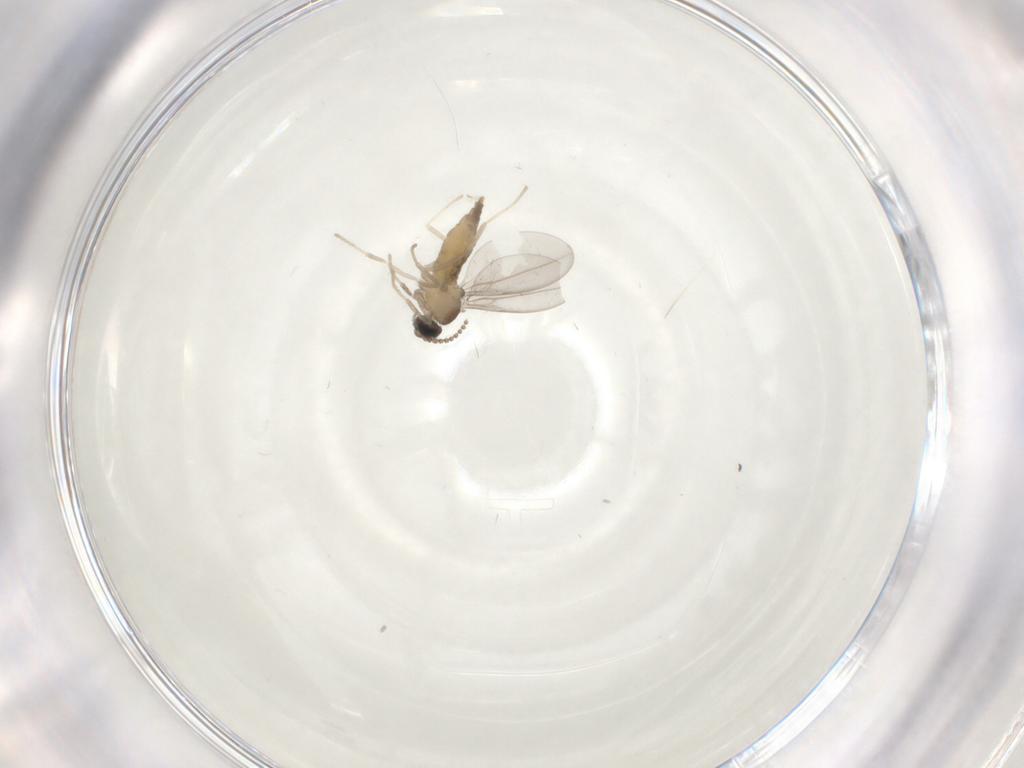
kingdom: Animalia
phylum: Arthropoda
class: Insecta
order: Diptera
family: Cecidomyiidae
